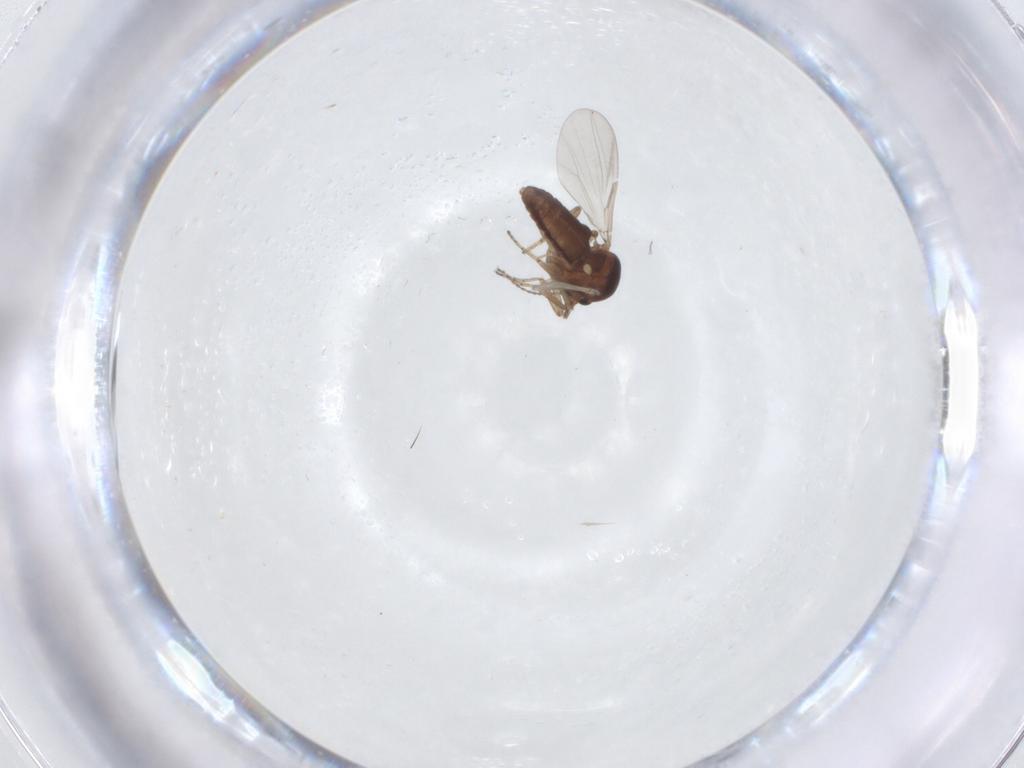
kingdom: Animalia
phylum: Arthropoda
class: Insecta
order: Diptera
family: Ceratopogonidae
